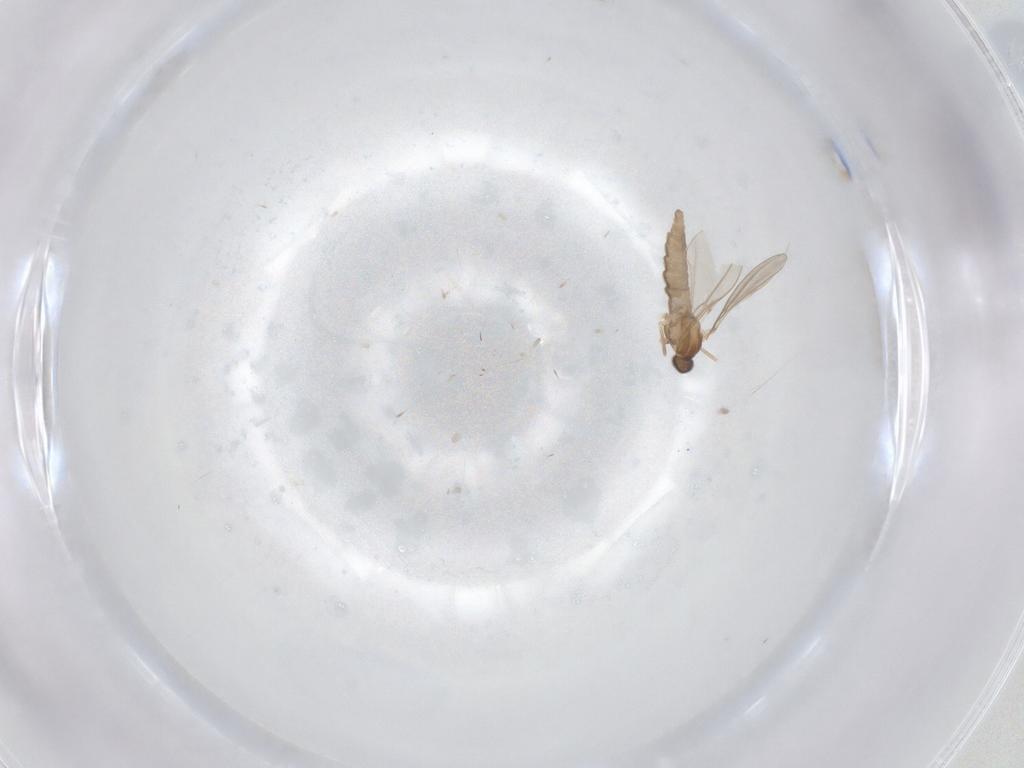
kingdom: Animalia
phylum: Arthropoda
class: Insecta
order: Diptera
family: Cecidomyiidae
